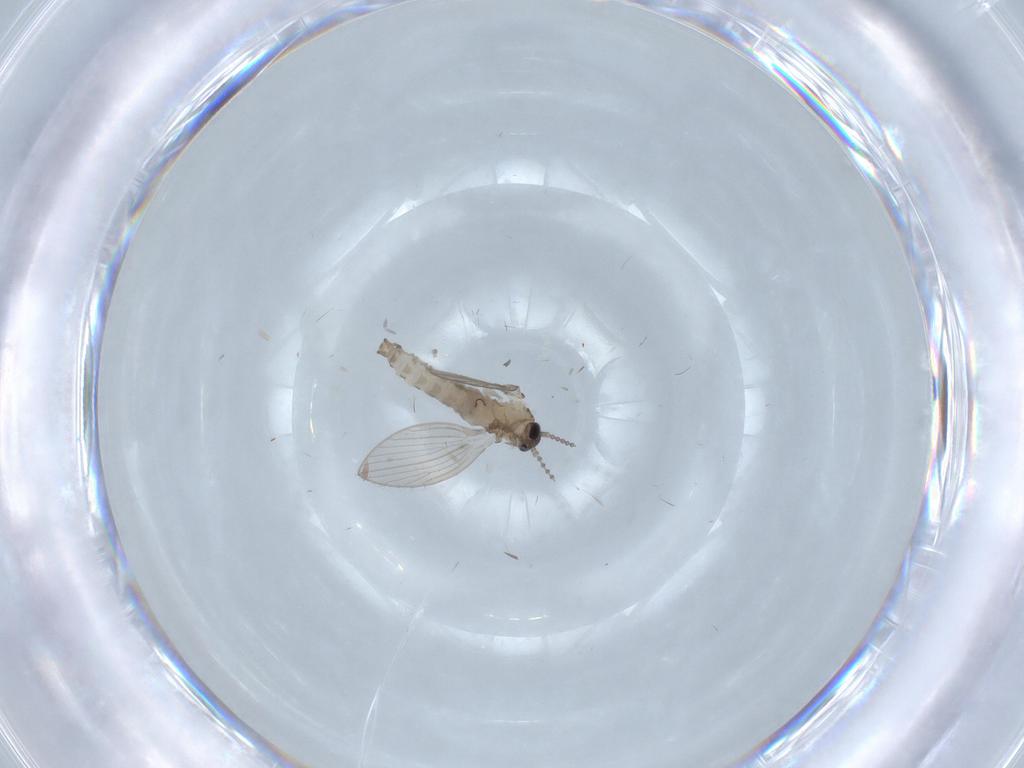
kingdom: Animalia
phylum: Arthropoda
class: Insecta
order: Diptera
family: Psychodidae
